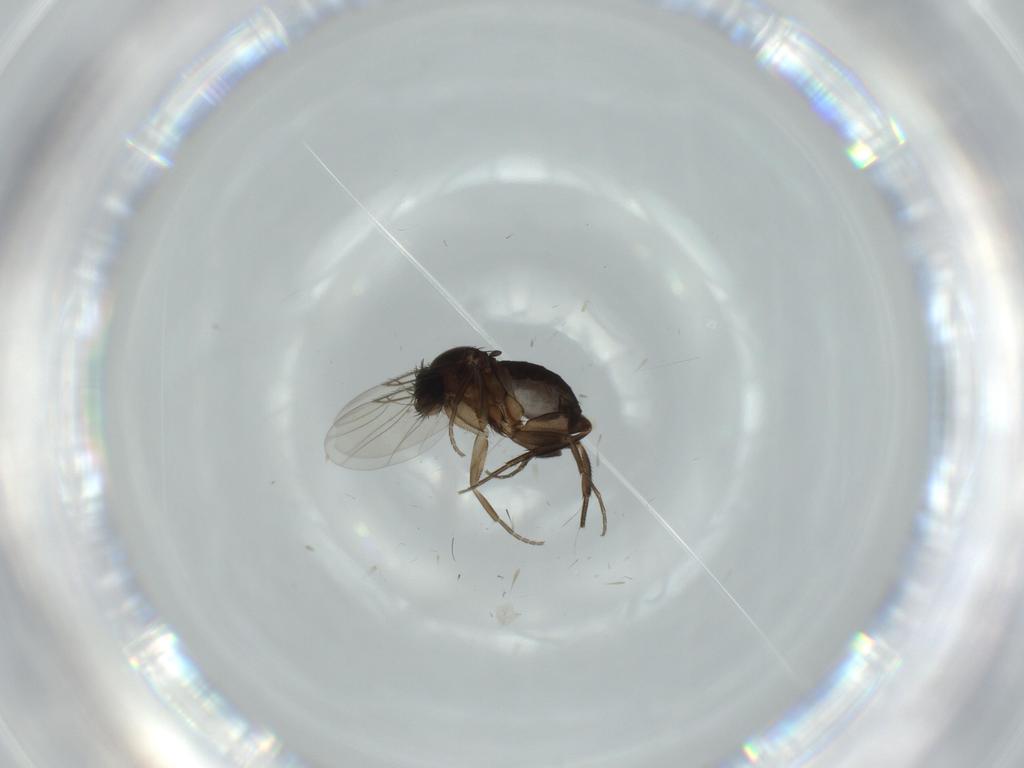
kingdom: Animalia
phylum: Arthropoda
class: Insecta
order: Diptera
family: Phoridae
